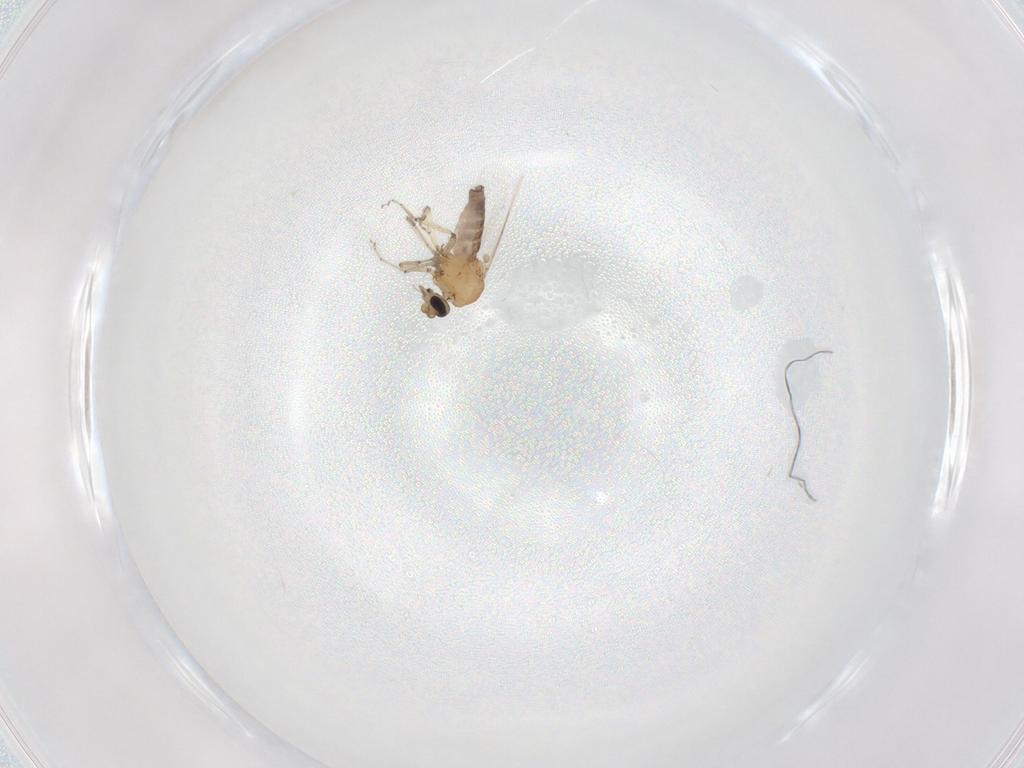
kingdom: Animalia
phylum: Arthropoda
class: Insecta
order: Diptera
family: Ceratopogonidae
